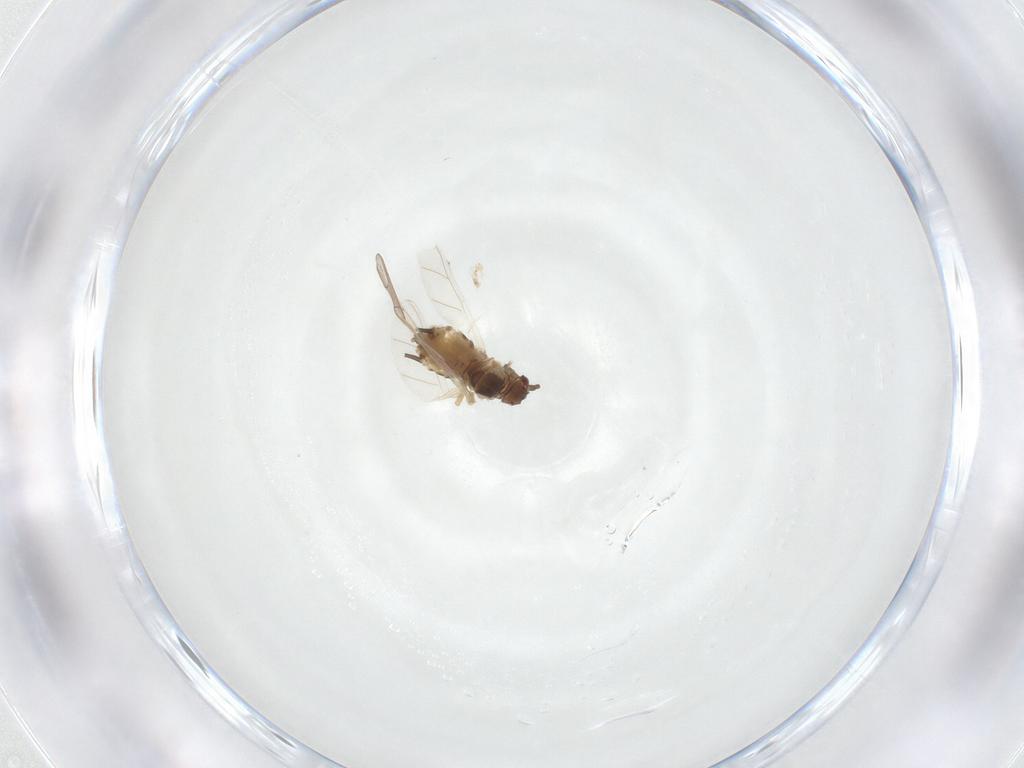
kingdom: Animalia
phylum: Arthropoda
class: Insecta
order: Hemiptera
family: Aphididae
